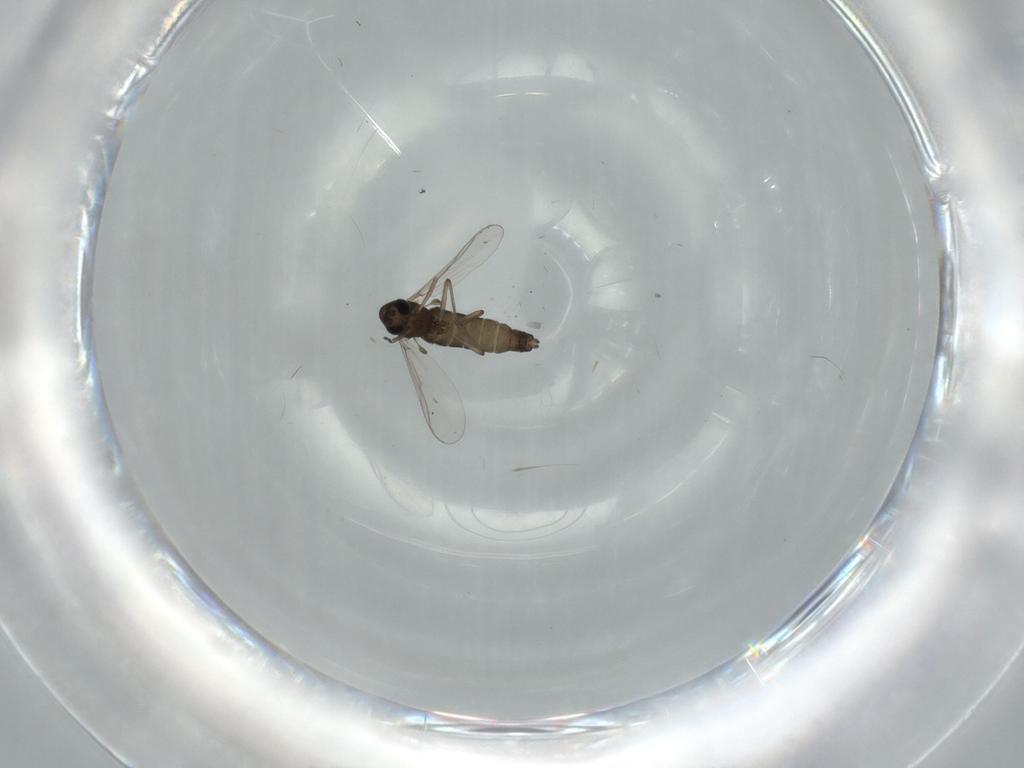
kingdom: Animalia
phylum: Arthropoda
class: Insecta
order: Diptera
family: Chironomidae
